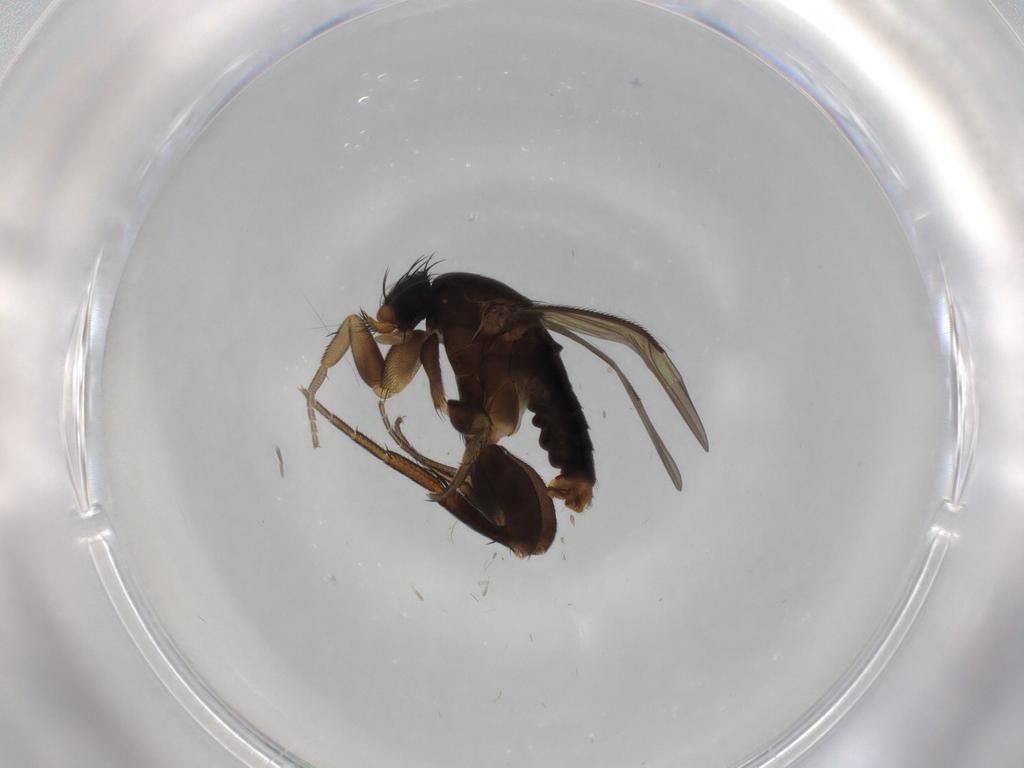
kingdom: Animalia
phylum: Arthropoda
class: Insecta
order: Diptera
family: Phoridae
